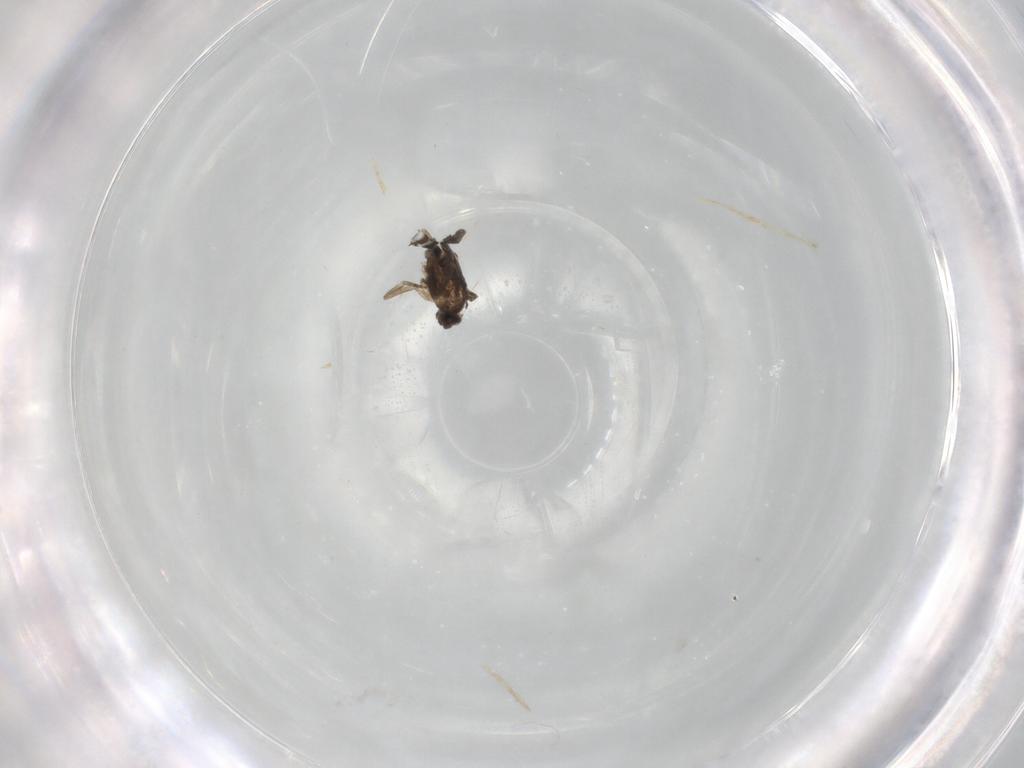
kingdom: Animalia
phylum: Arthropoda
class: Insecta
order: Diptera
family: Cecidomyiidae
